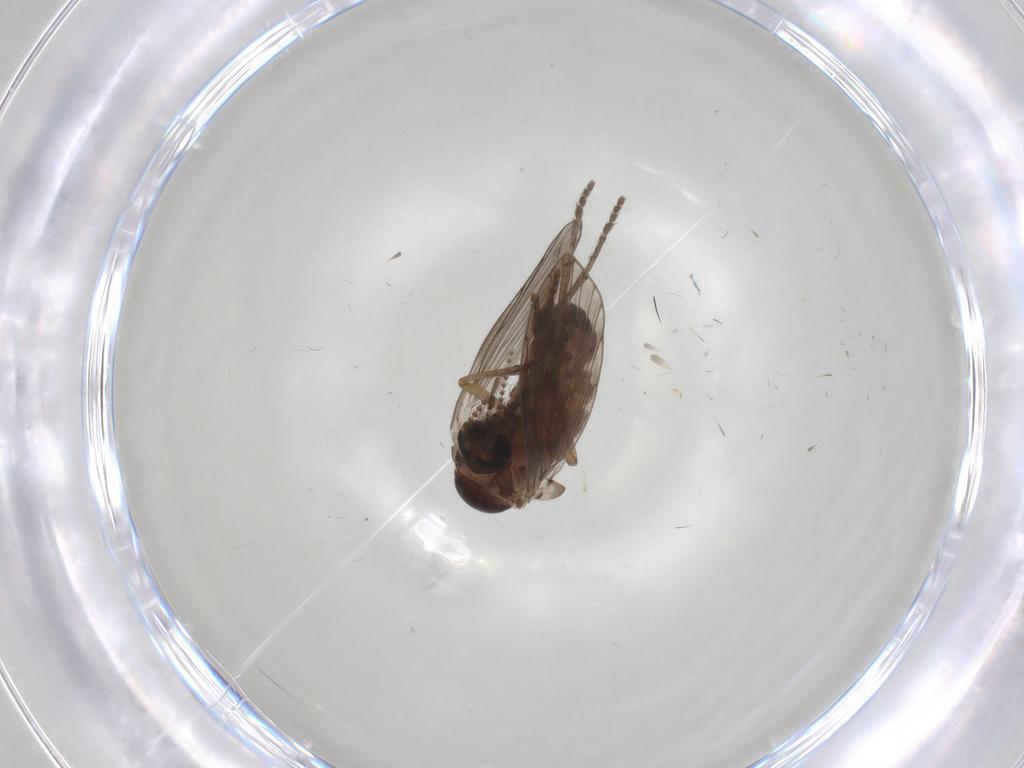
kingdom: Animalia
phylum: Arthropoda
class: Insecta
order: Diptera
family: Psychodidae
